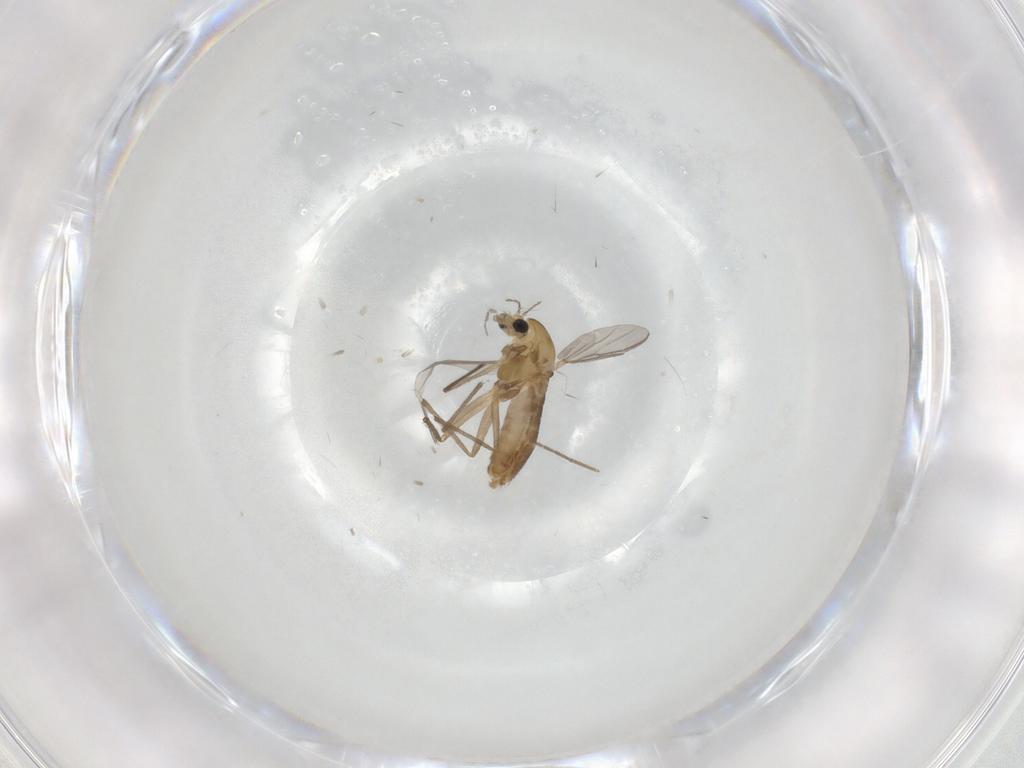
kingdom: Animalia
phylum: Arthropoda
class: Insecta
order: Diptera
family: Chironomidae
